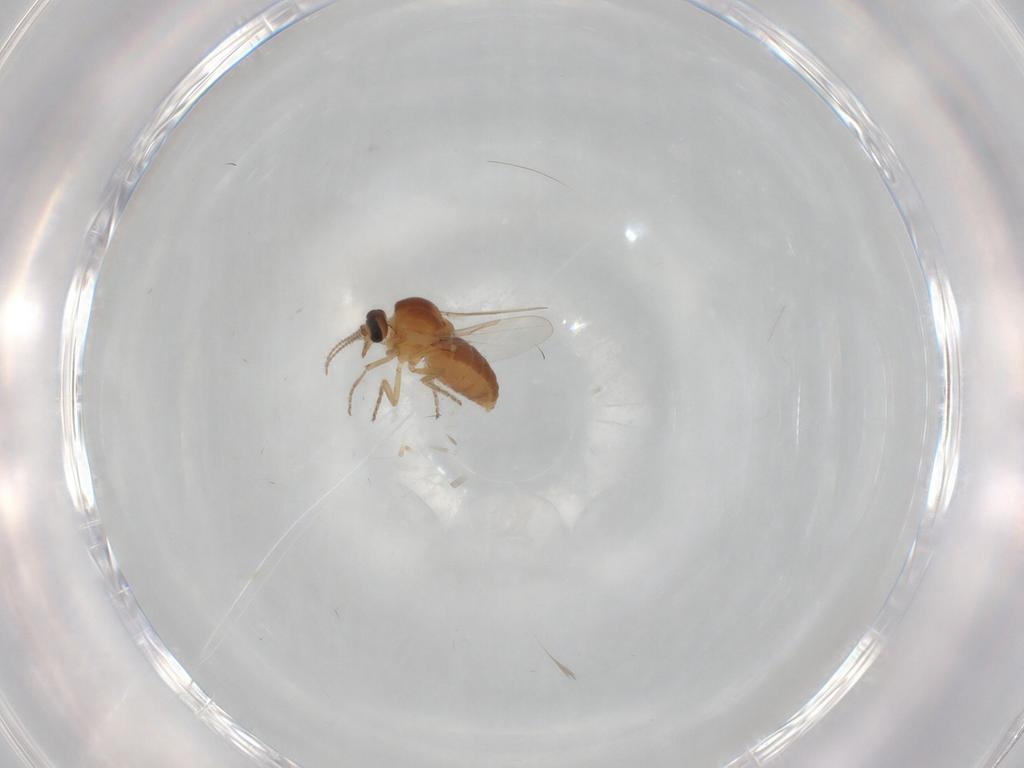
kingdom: Animalia
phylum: Arthropoda
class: Insecta
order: Diptera
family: Ceratopogonidae
